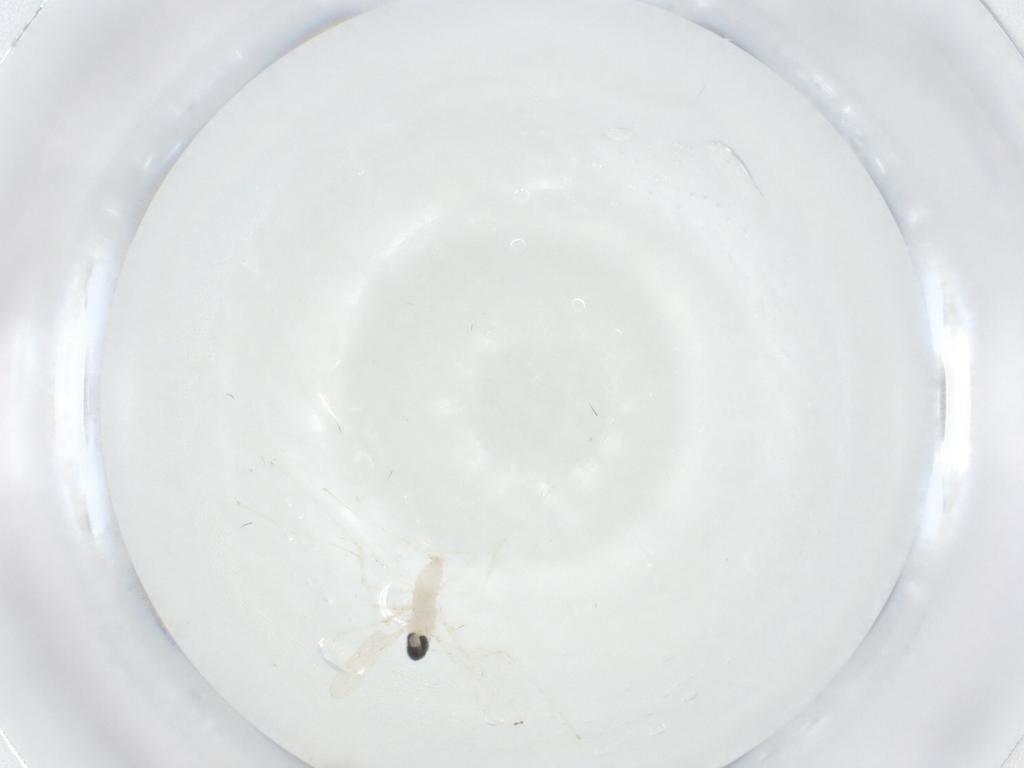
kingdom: Animalia
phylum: Arthropoda
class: Insecta
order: Diptera
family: Cecidomyiidae
